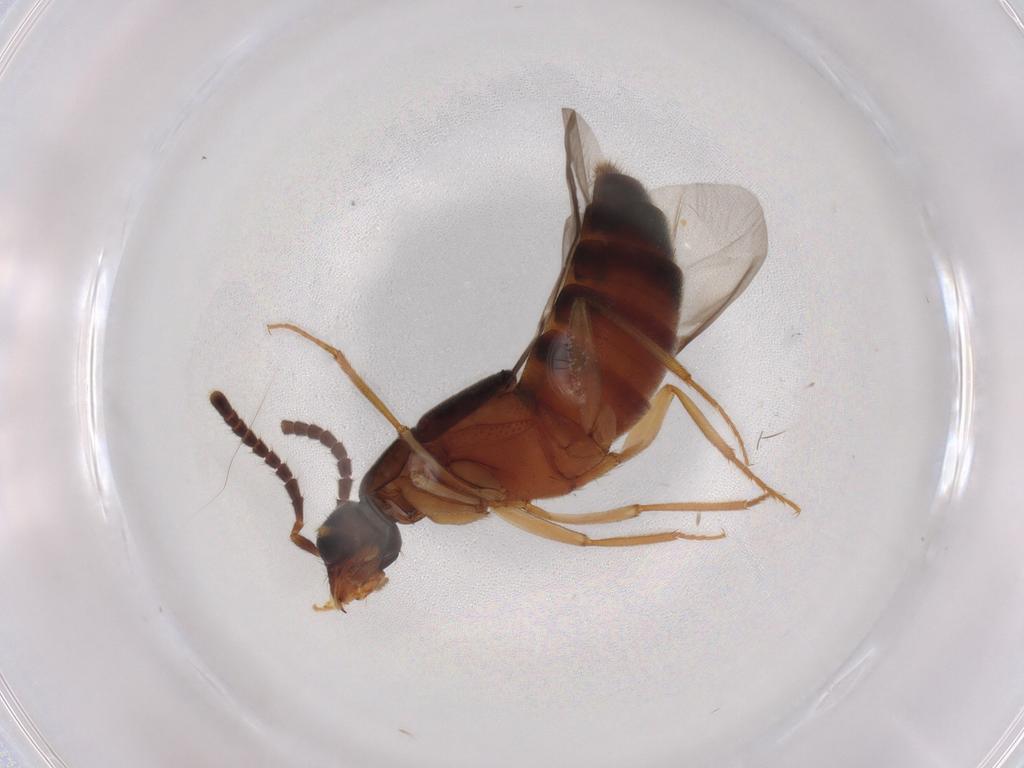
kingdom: Animalia
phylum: Arthropoda
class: Insecta
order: Coleoptera
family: Staphylinidae
